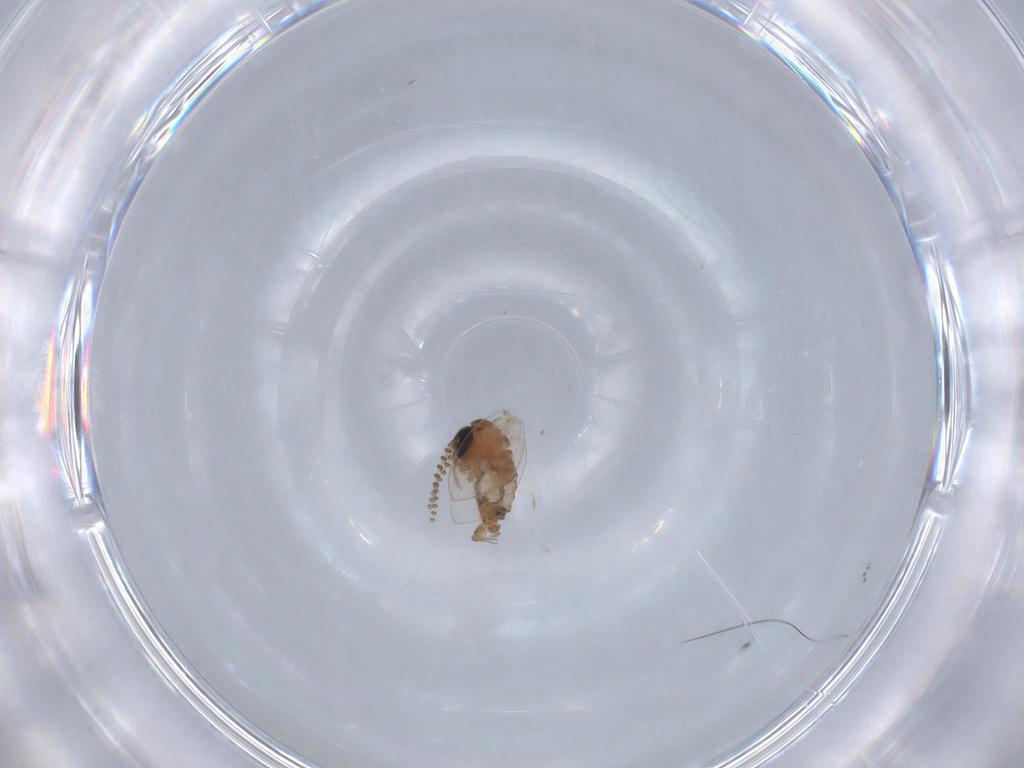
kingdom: Animalia
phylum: Arthropoda
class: Insecta
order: Diptera
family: Psychodidae
